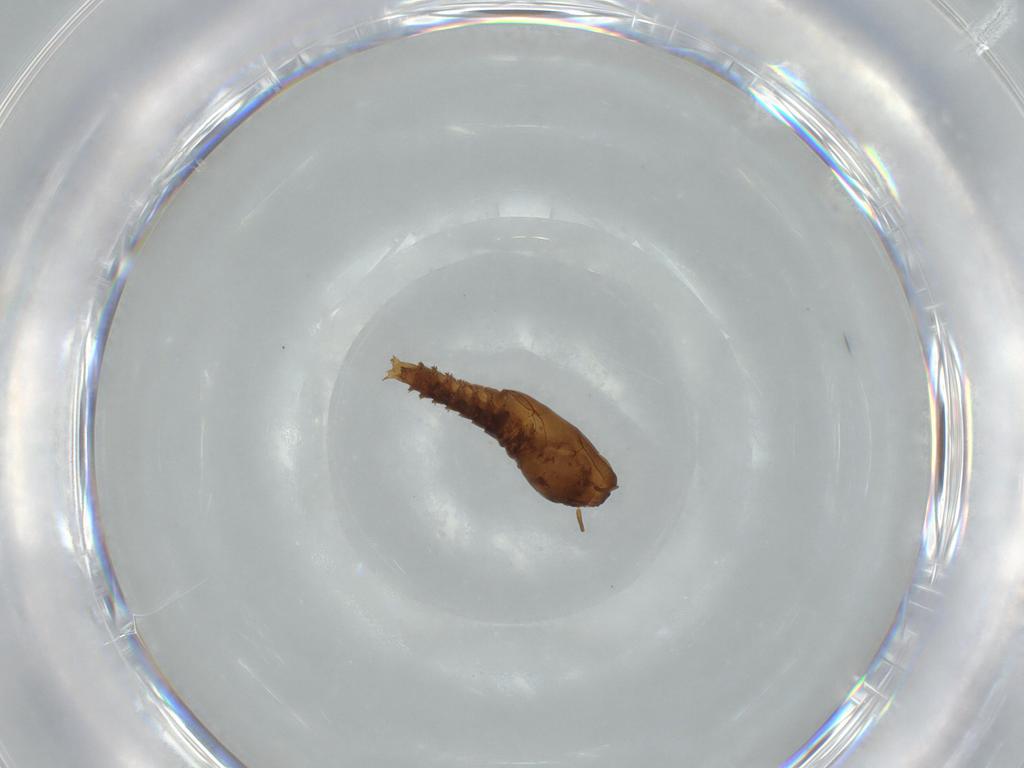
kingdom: Animalia
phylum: Arthropoda
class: Insecta
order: Diptera
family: Ceratopogonidae
